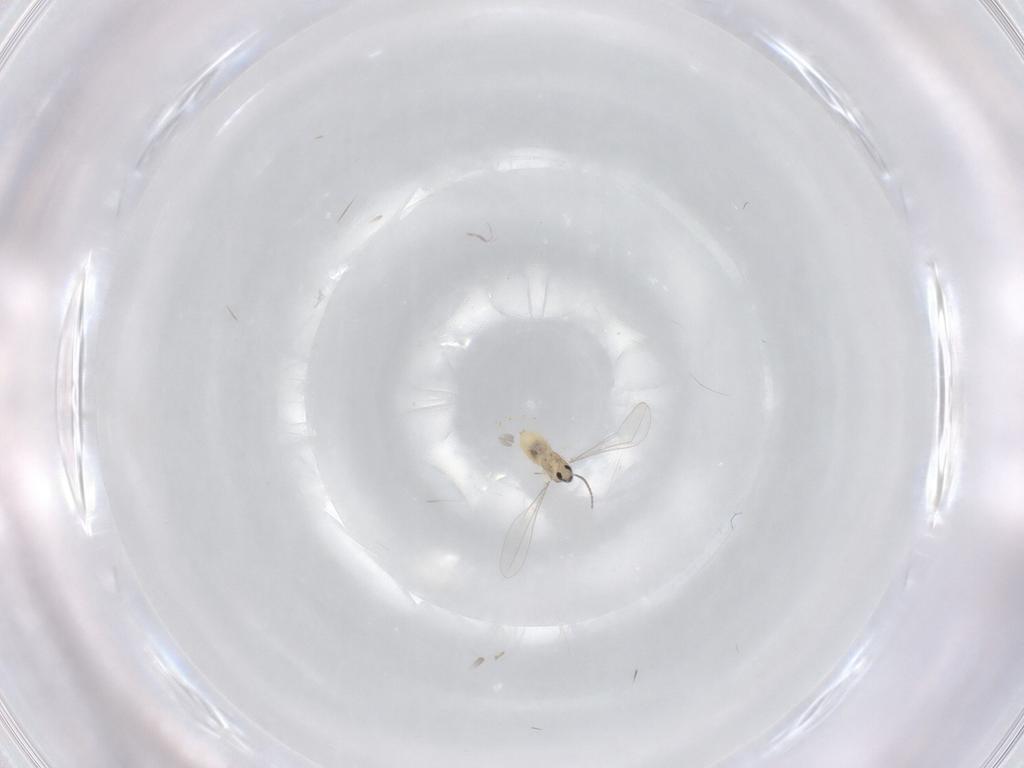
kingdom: Animalia
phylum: Arthropoda
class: Insecta
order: Diptera
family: Cecidomyiidae
